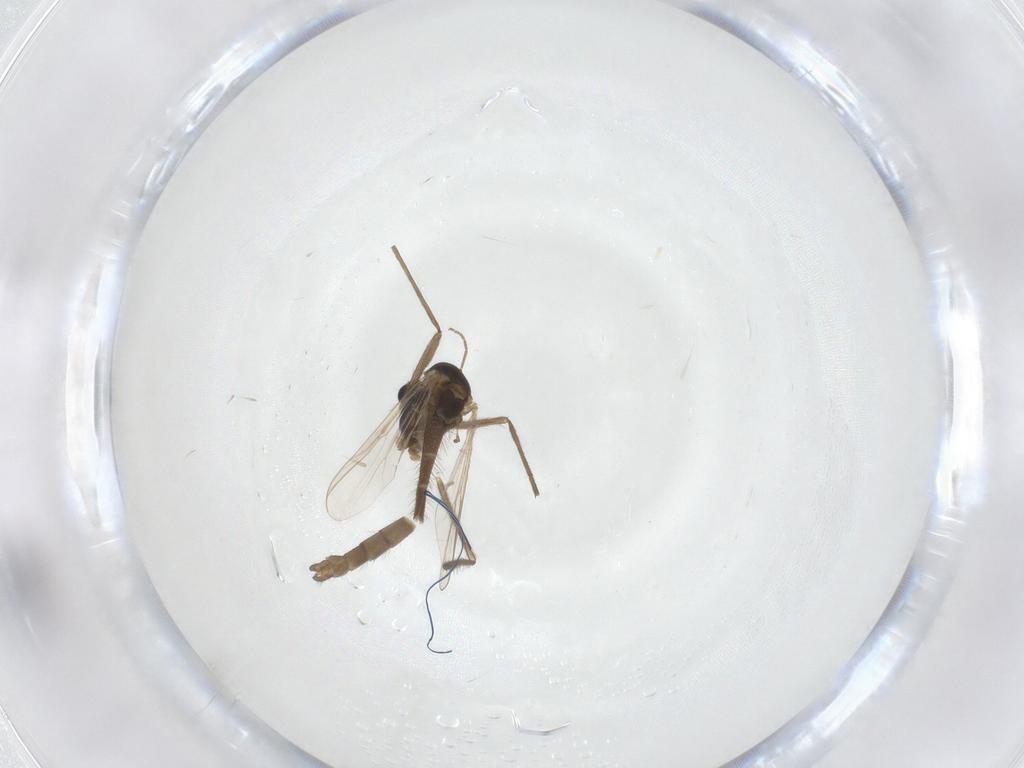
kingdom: Animalia
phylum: Arthropoda
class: Insecta
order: Diptera
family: Chironomidae
